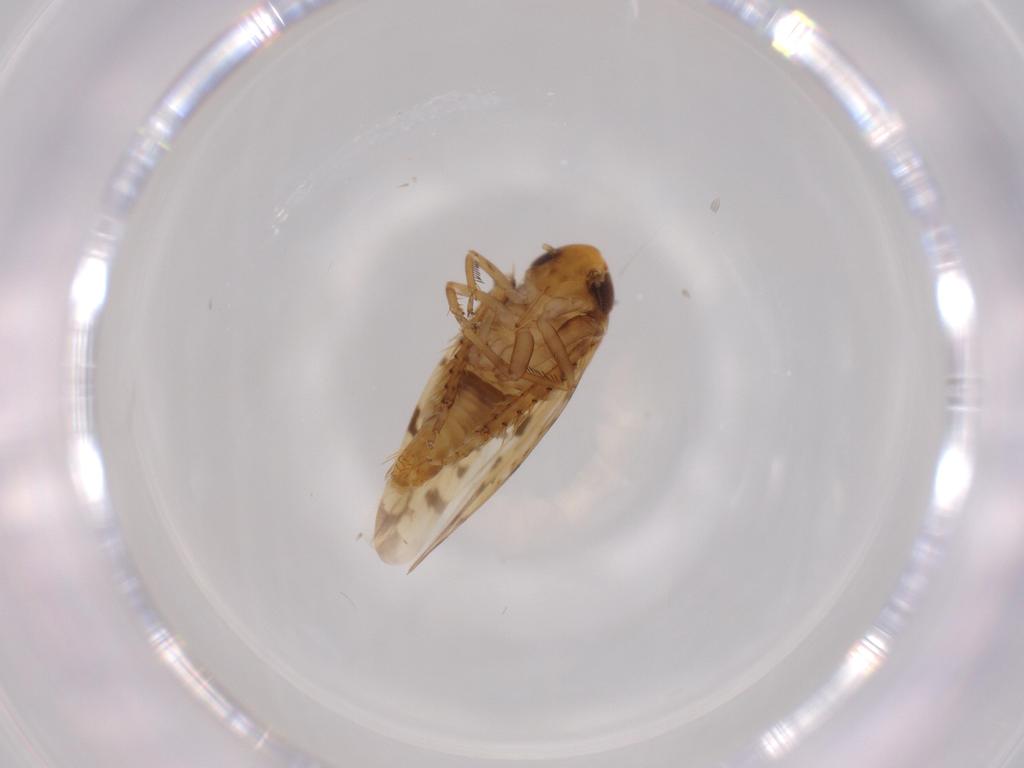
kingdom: Animalia
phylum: Arthropoda
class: Insecta
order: Hemiptera
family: Cicadellidae
